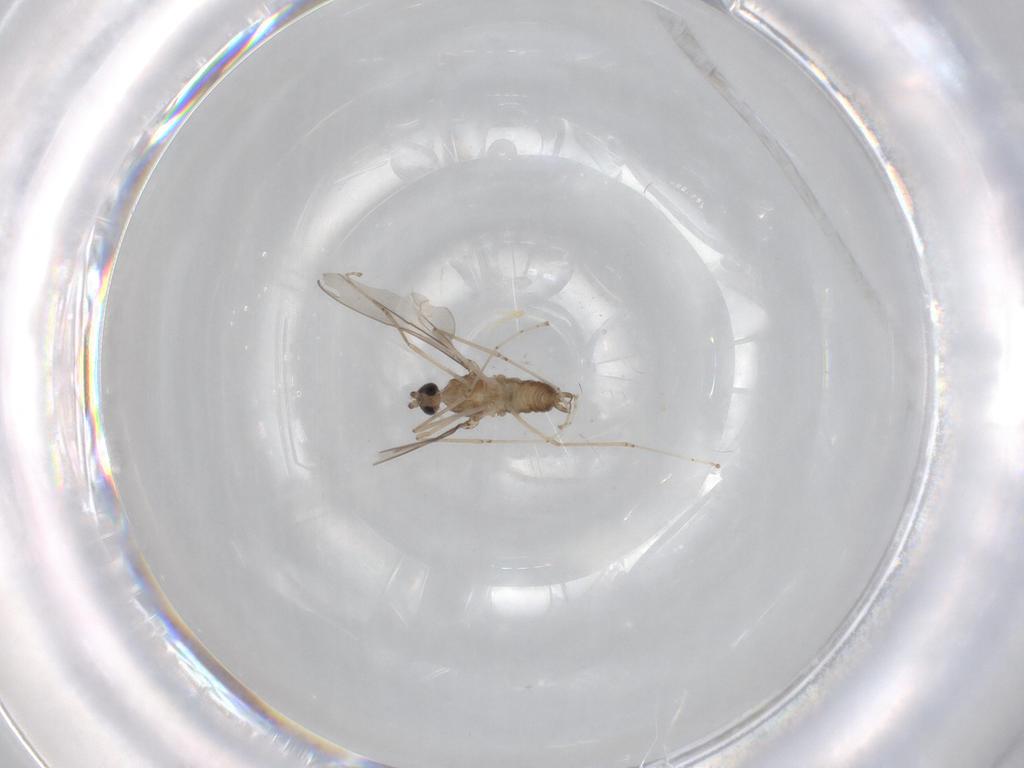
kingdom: Animalia
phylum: Arthropoda
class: Insecta
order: Diptera
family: Cecidomyiidae
